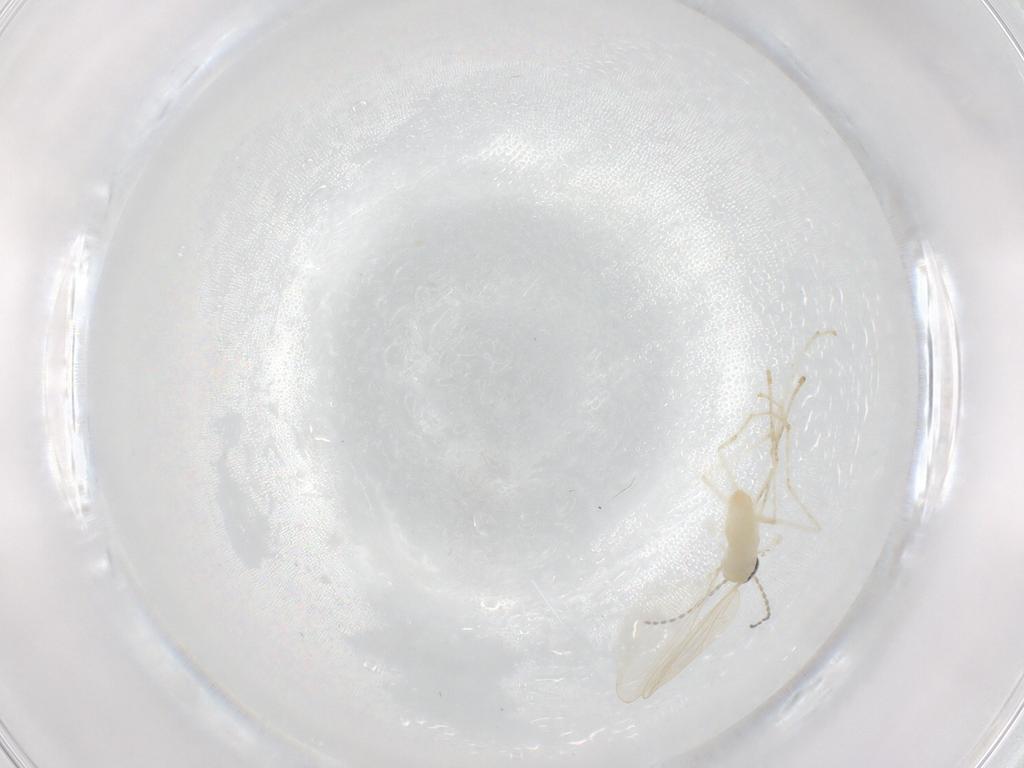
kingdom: Animalia
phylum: Arthropoda
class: Insecta
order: Diptera
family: Cecidomyiidae
